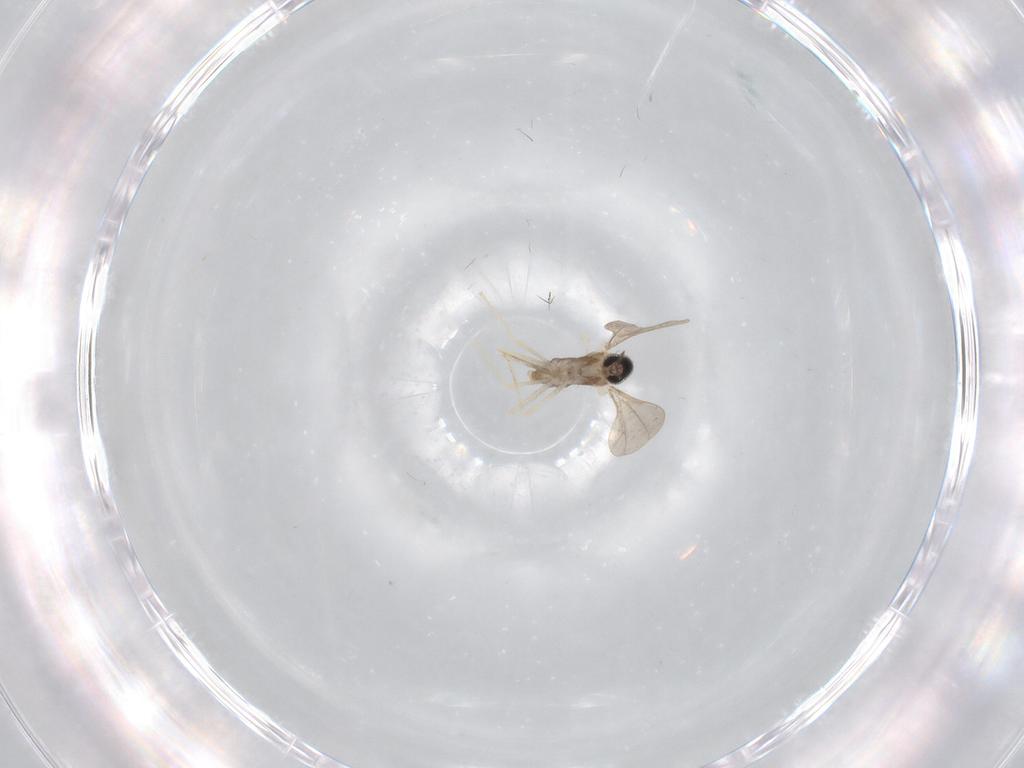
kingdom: Animalia
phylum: Arthropoda
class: Insecta
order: Diptera
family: Cecidomyiidae
